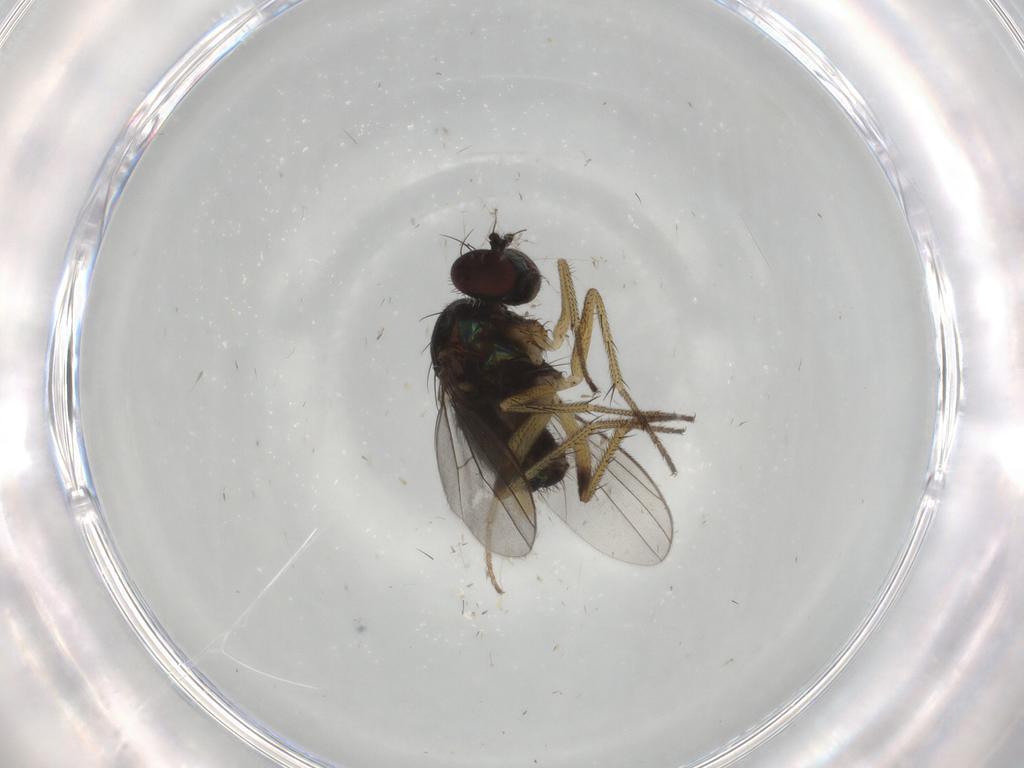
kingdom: Animalia
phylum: Arthropoda
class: Insecta
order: Diptera
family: Dolichopodidae
